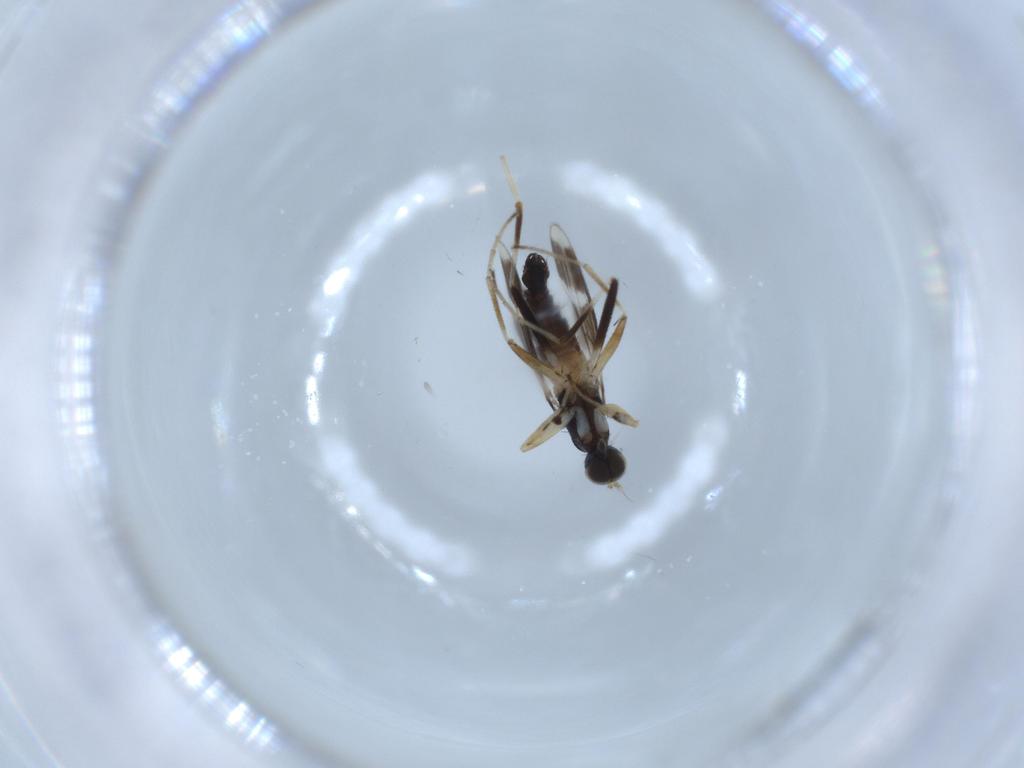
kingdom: Animalia
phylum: Arthropoda
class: Insecta
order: Diptera
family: Hybotidae
